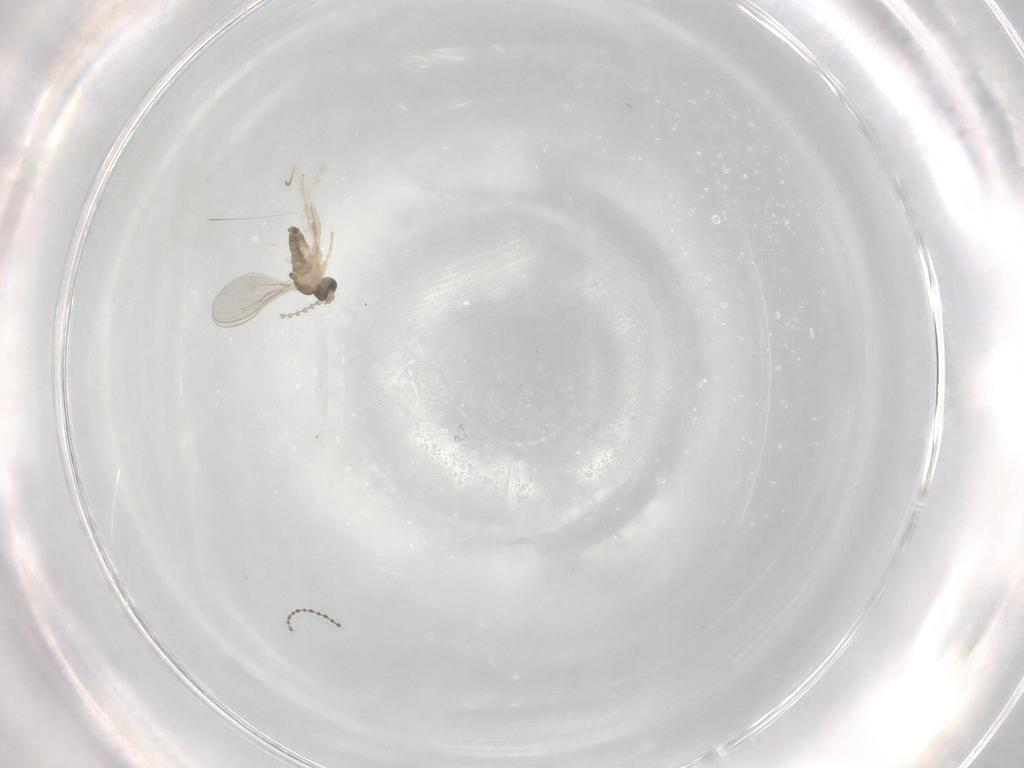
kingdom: Animalia
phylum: Arthropoda
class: Insecta
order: Diptera
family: Cecidomyiidae
